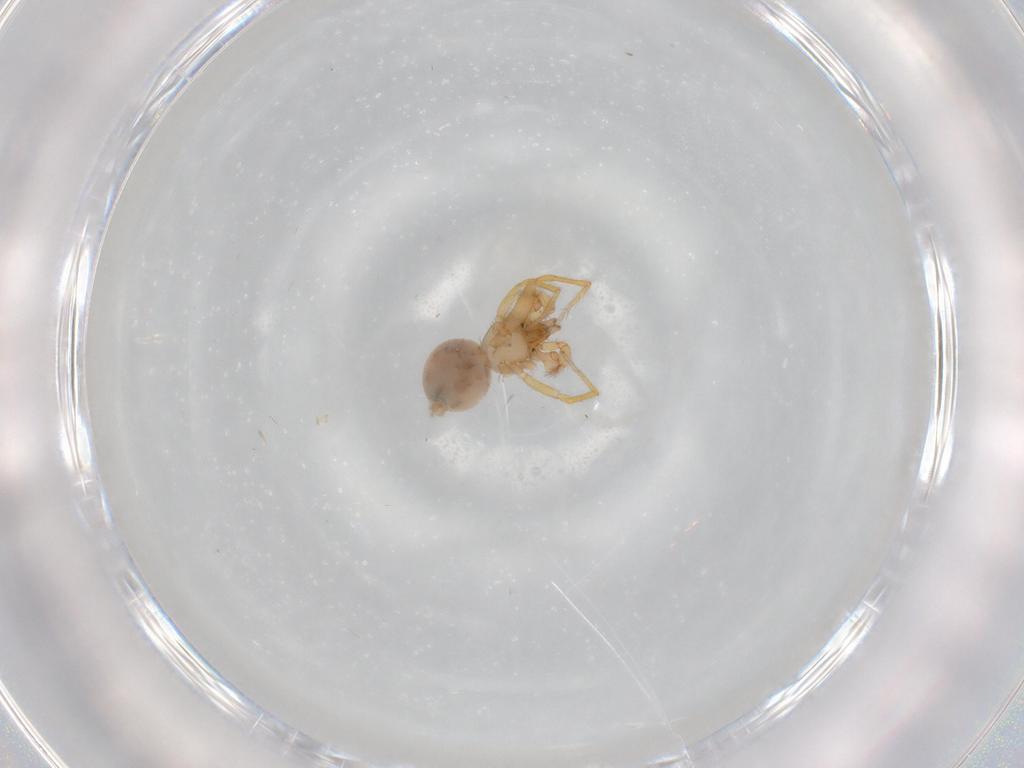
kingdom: Animalia
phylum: Arthropoda
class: Arachnida
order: Araneae
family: Oonopidae
